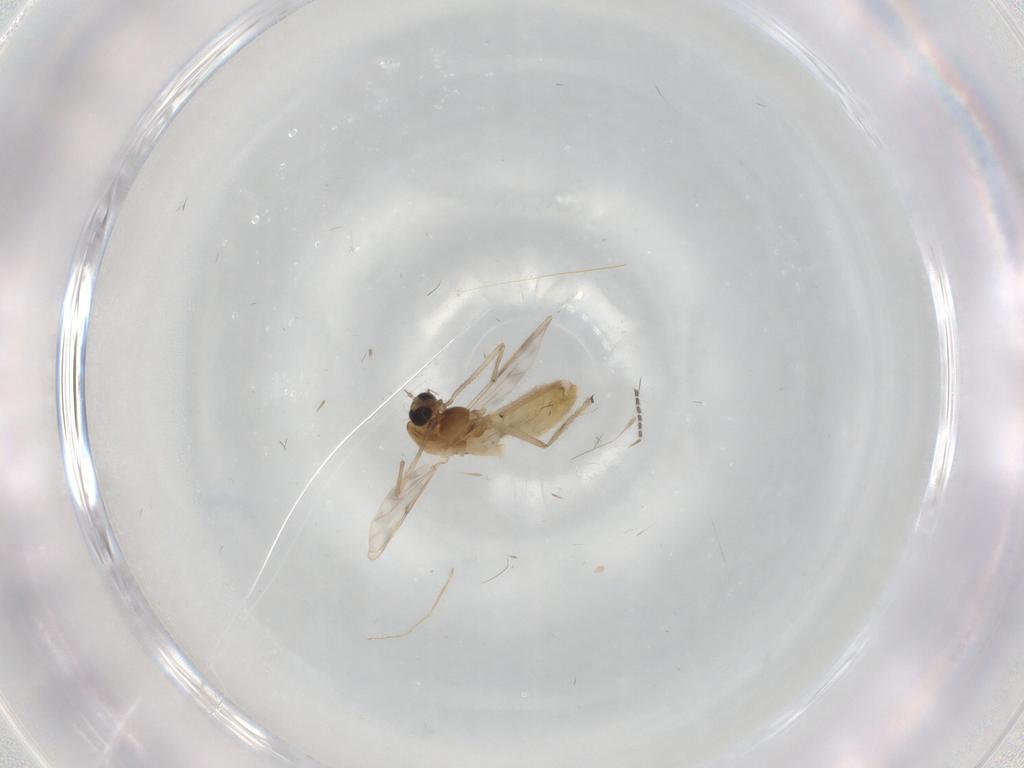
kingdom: Animalia
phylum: Arthropoda
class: Insecta
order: Diptera
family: Chironomidae
